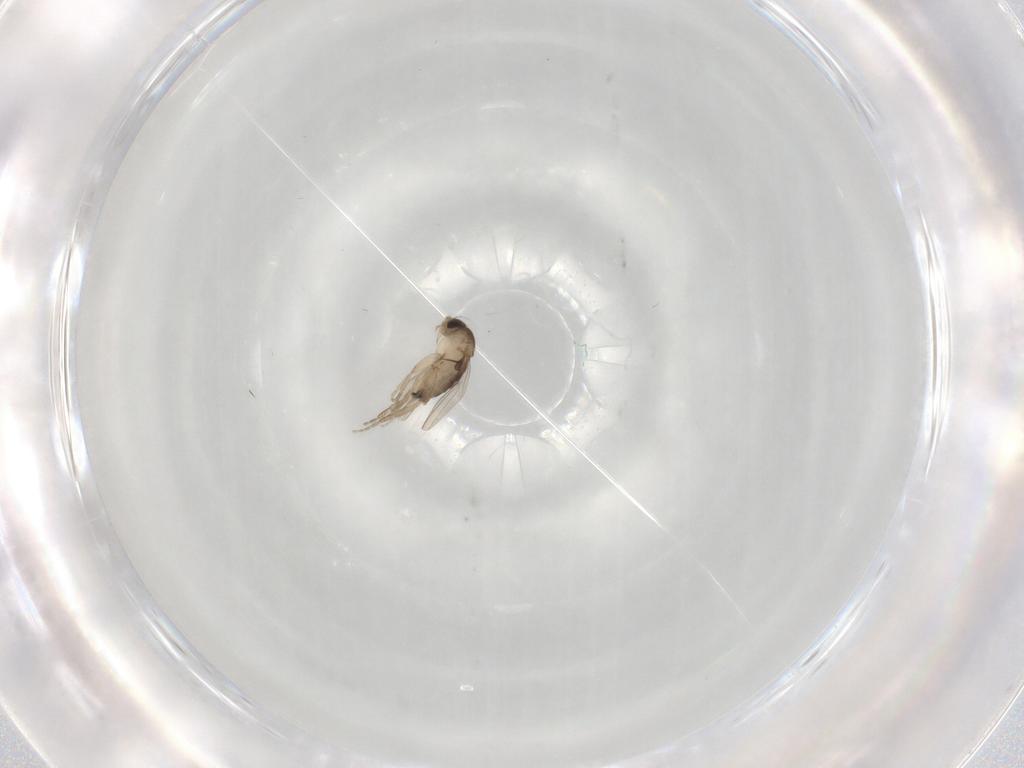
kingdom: Animalia
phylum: Arthropoda
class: Insecta
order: Diptera
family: Phoridae
